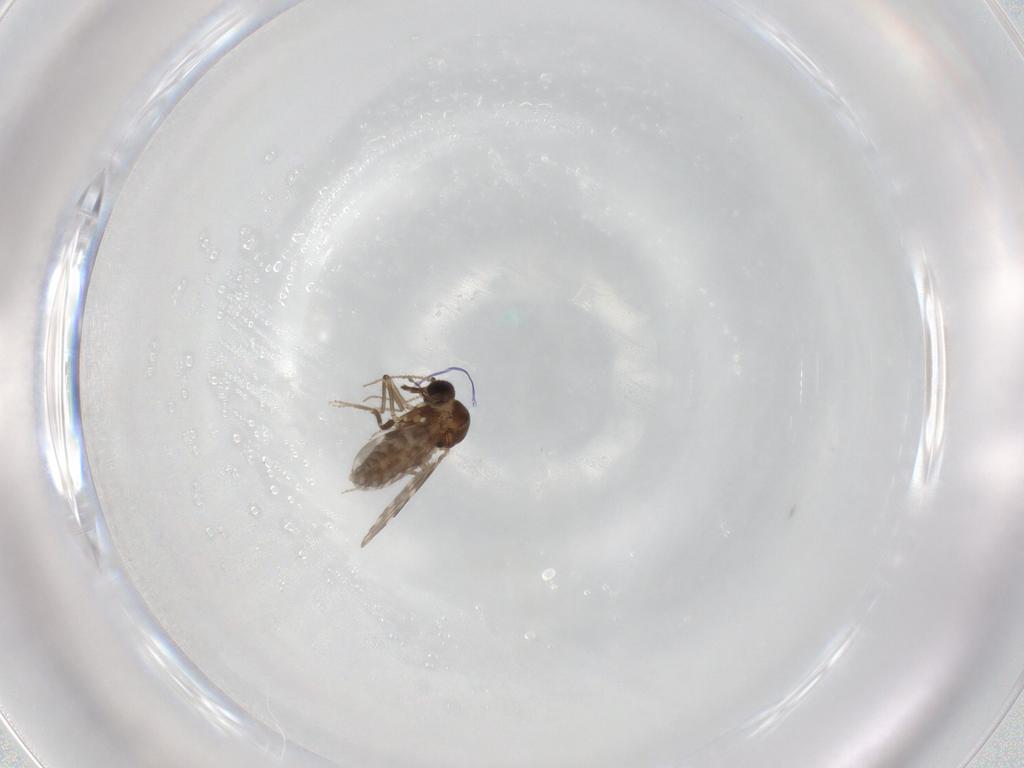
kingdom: Animalia
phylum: Arthropoda
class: Insecta
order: Diptera
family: Ceratopogonidae
